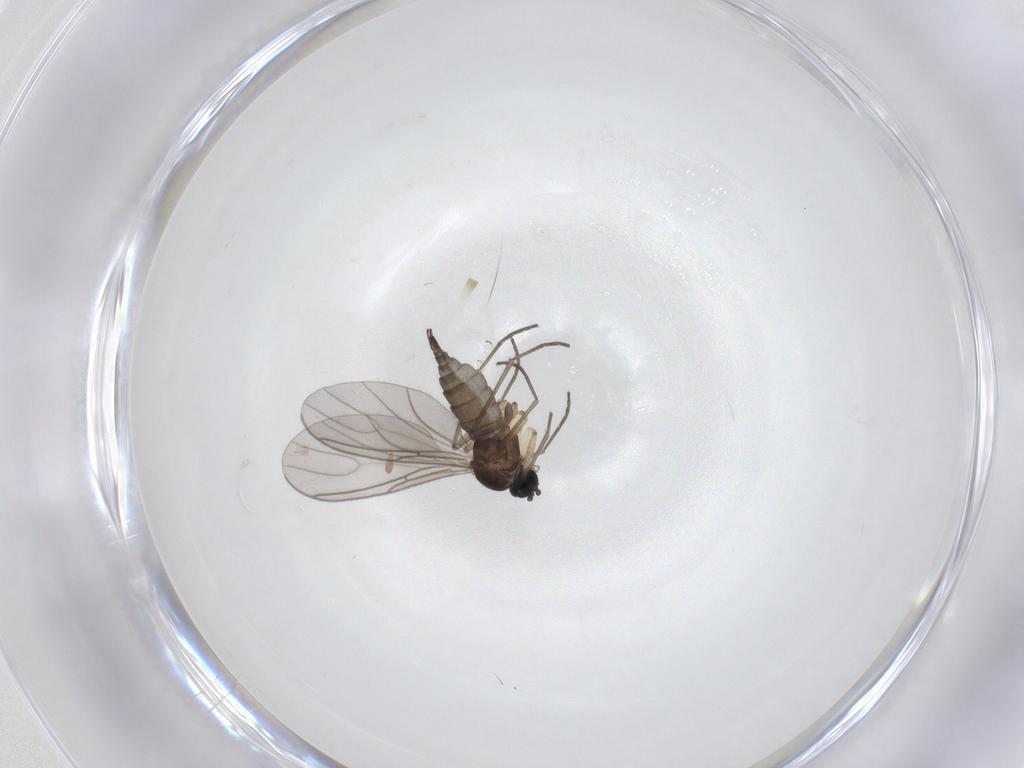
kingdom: Animalia
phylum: Arthropoda
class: Insecta
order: Diptera
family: Sciaridae
